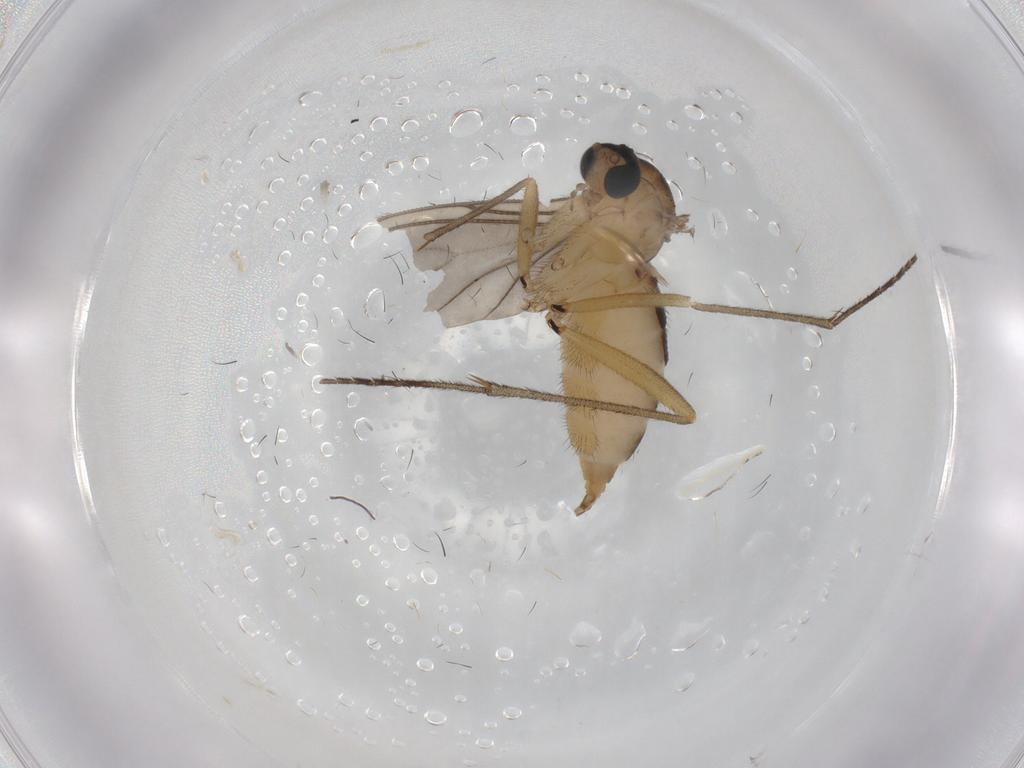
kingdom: Animalia
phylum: Arthropoda
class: Insecta
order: Diptera
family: Sciaridae
